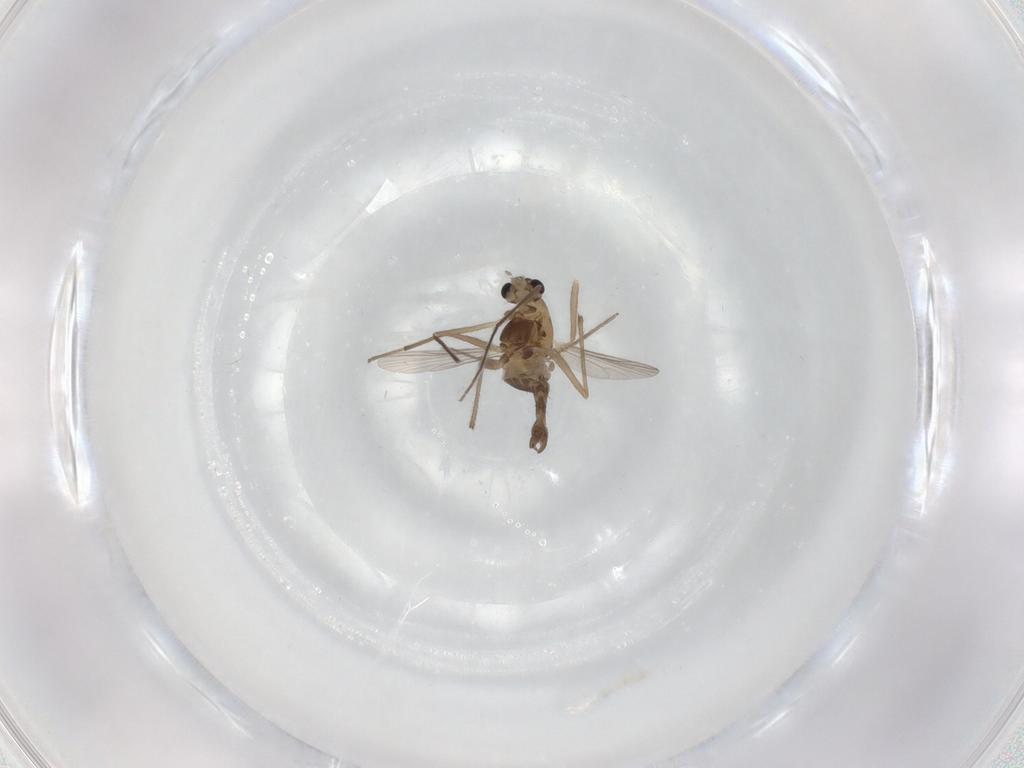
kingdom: Animalia
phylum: Arthropoda
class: Insecta
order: Diptera
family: Chironomidae
